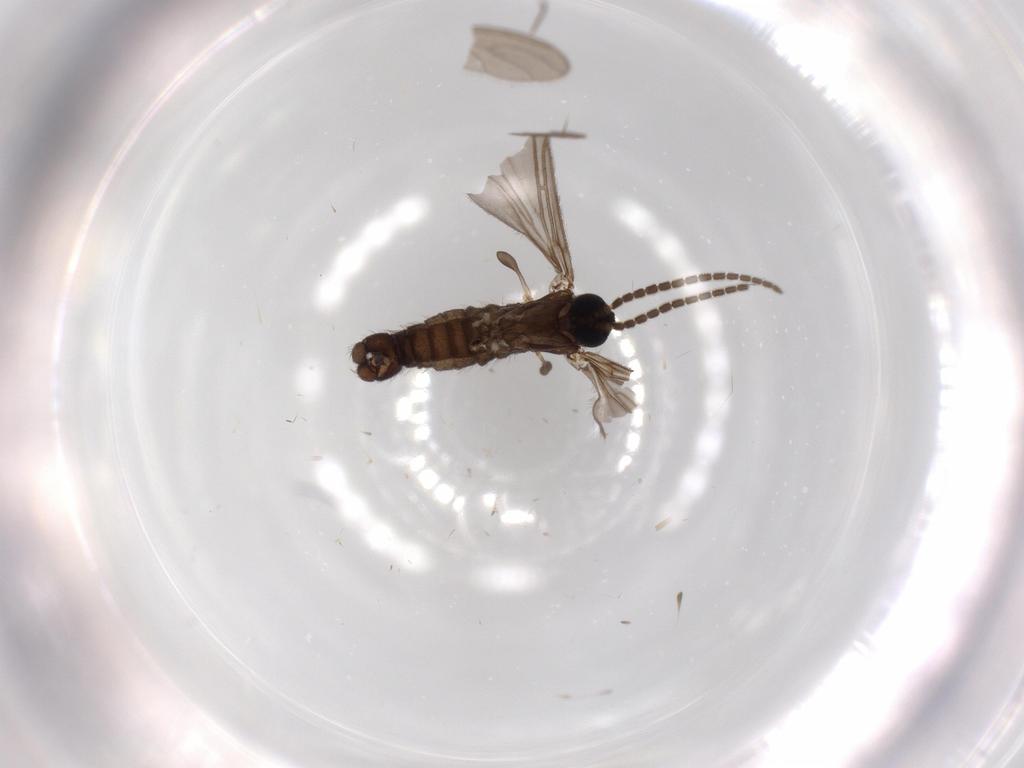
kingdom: Animalia
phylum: Arthropoda
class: Insecta
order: Diptera
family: Sciaridae
